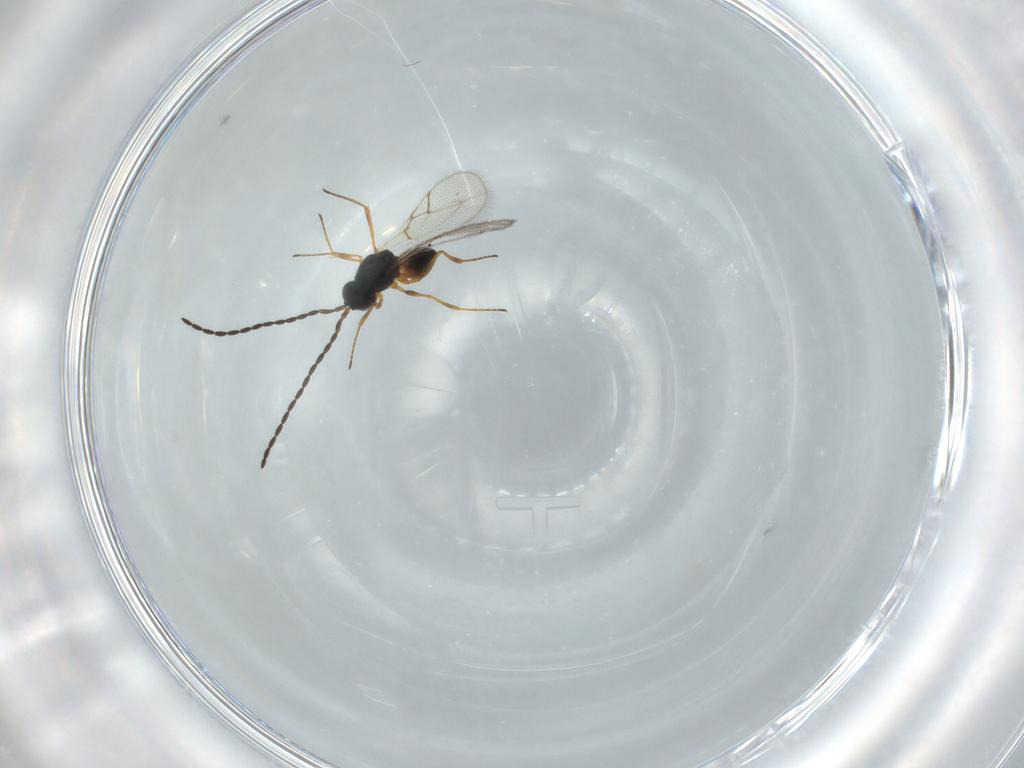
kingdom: Animalia
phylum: Arthropoda
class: Insecta
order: Hymenoptera
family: Figitidae
